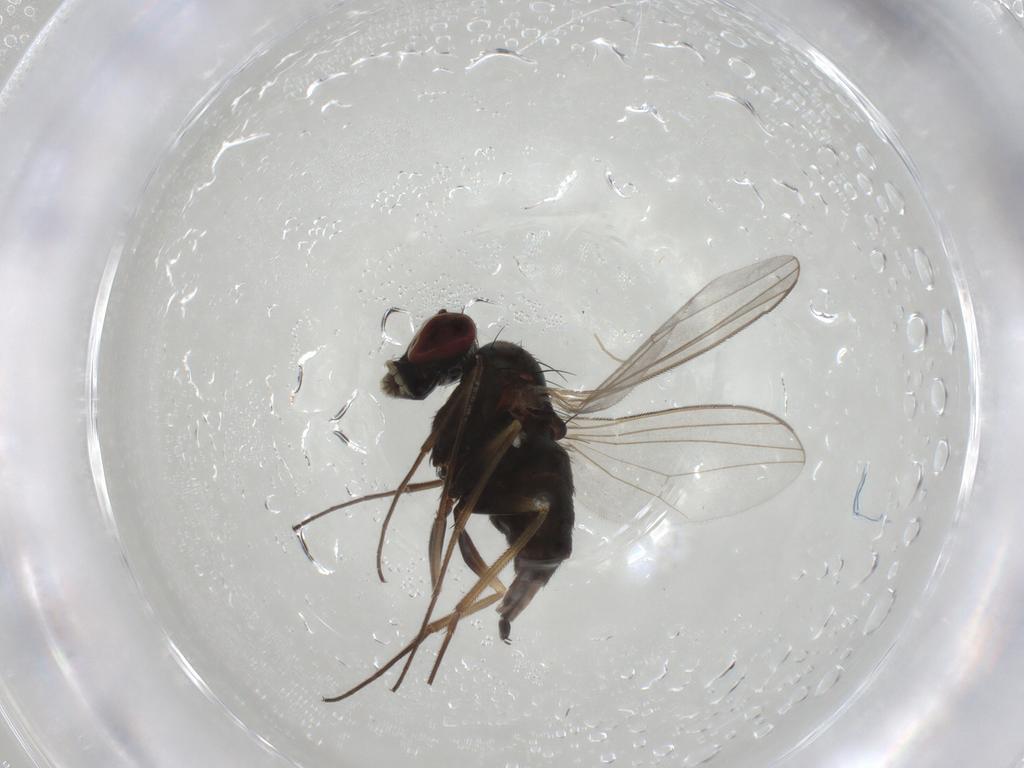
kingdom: Animalia
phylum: Arthropoda
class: Insecta
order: Diptera
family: Dolichopodidae
